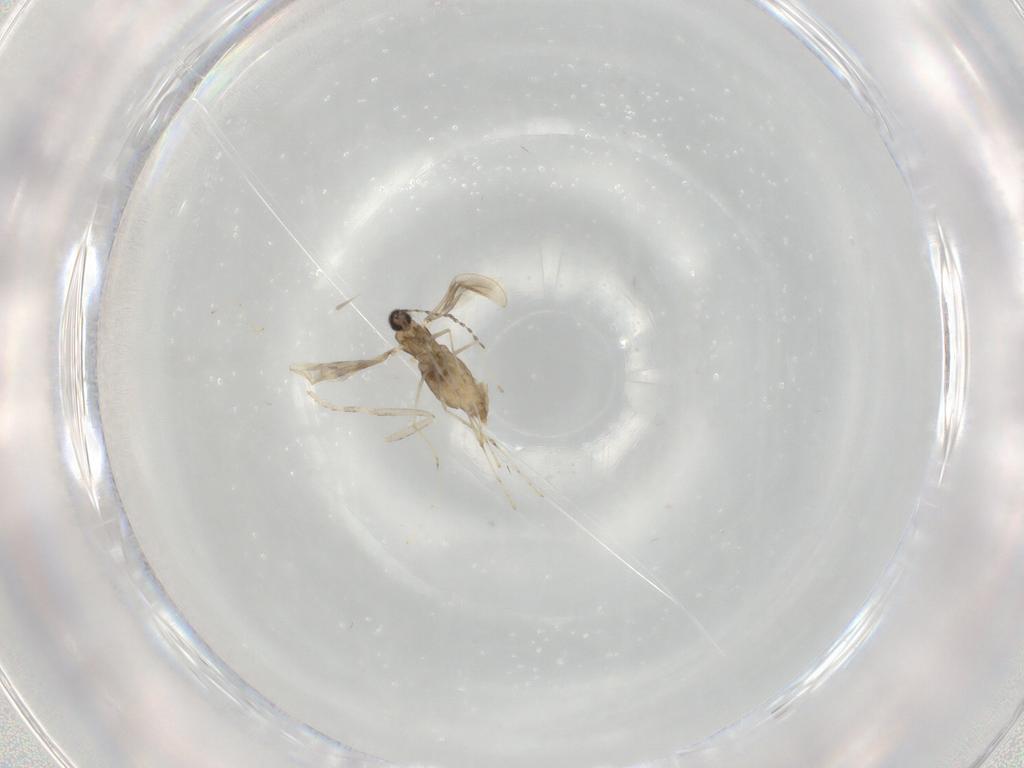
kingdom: Animalia
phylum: Arthropoda
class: Insecta
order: Diptera
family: Cecidomyiidae
